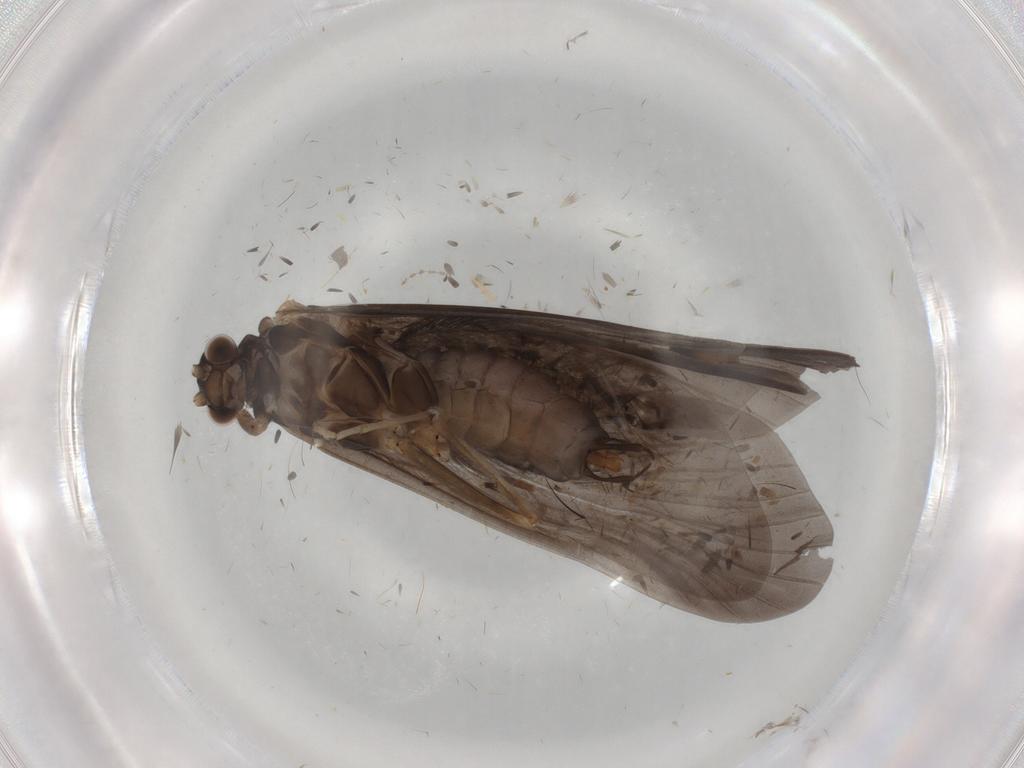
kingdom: Animalia
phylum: Arthropoda
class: Insecta
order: Trichoptera
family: Hydropsychidae
